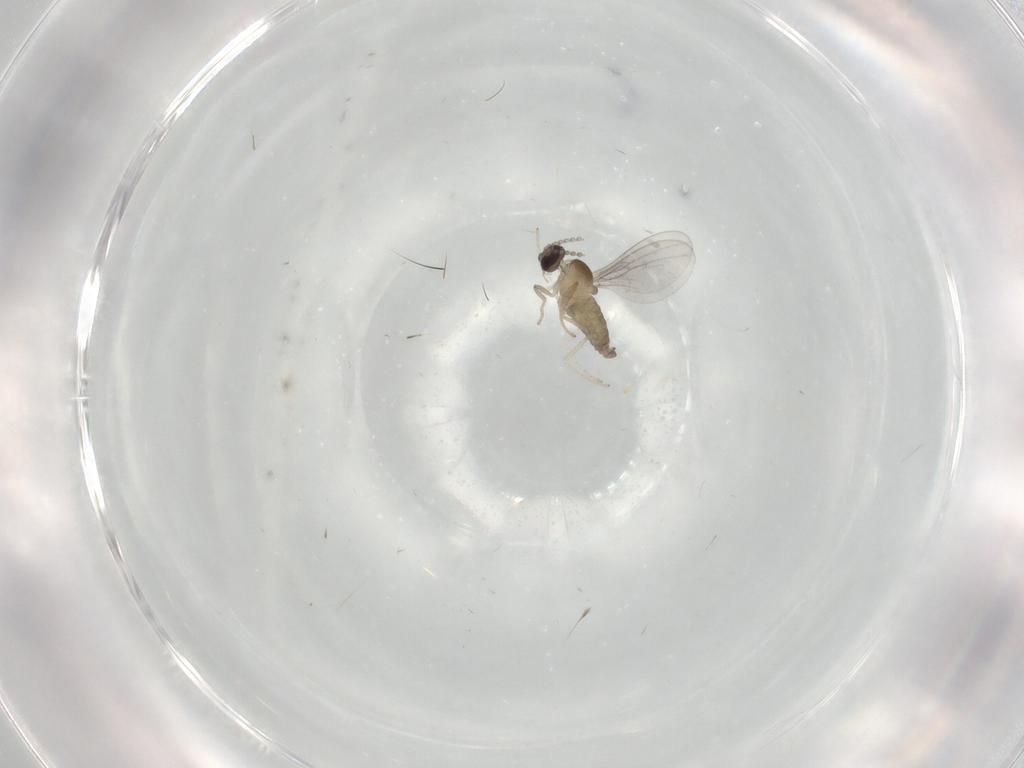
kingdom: Animalia
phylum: Arthropoda
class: Insecta
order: Diptera
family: Cecidomyiidae
